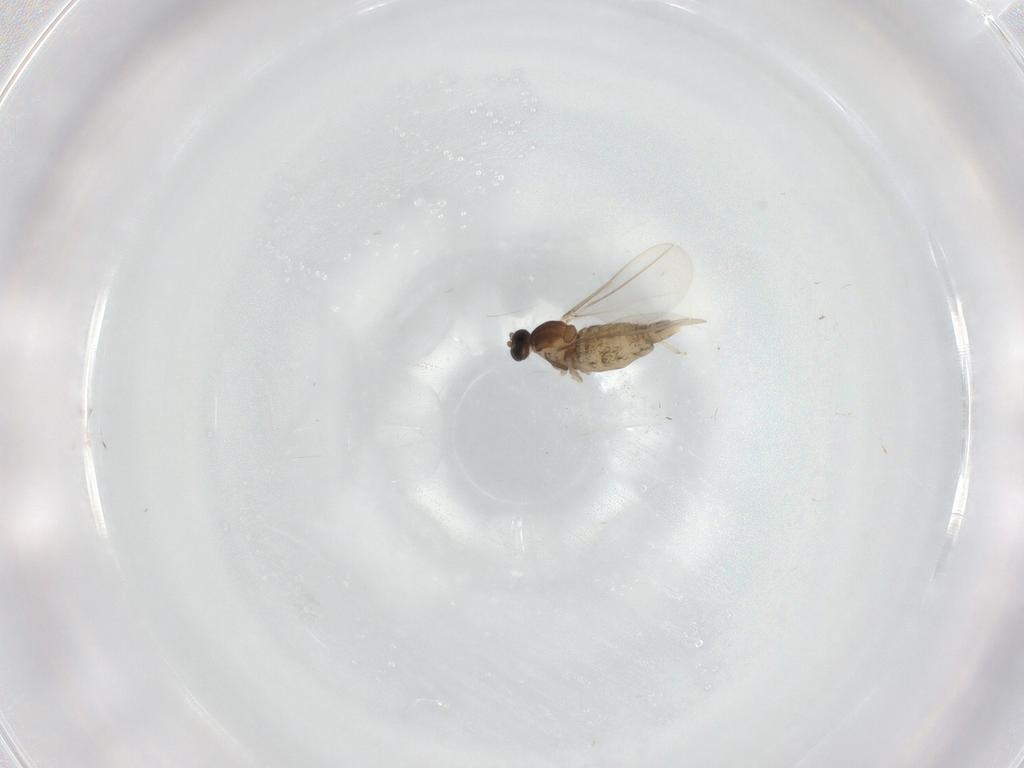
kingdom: Animalia
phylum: Arthropoda
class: Insecta
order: Diptera
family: Cecidomyiidae
